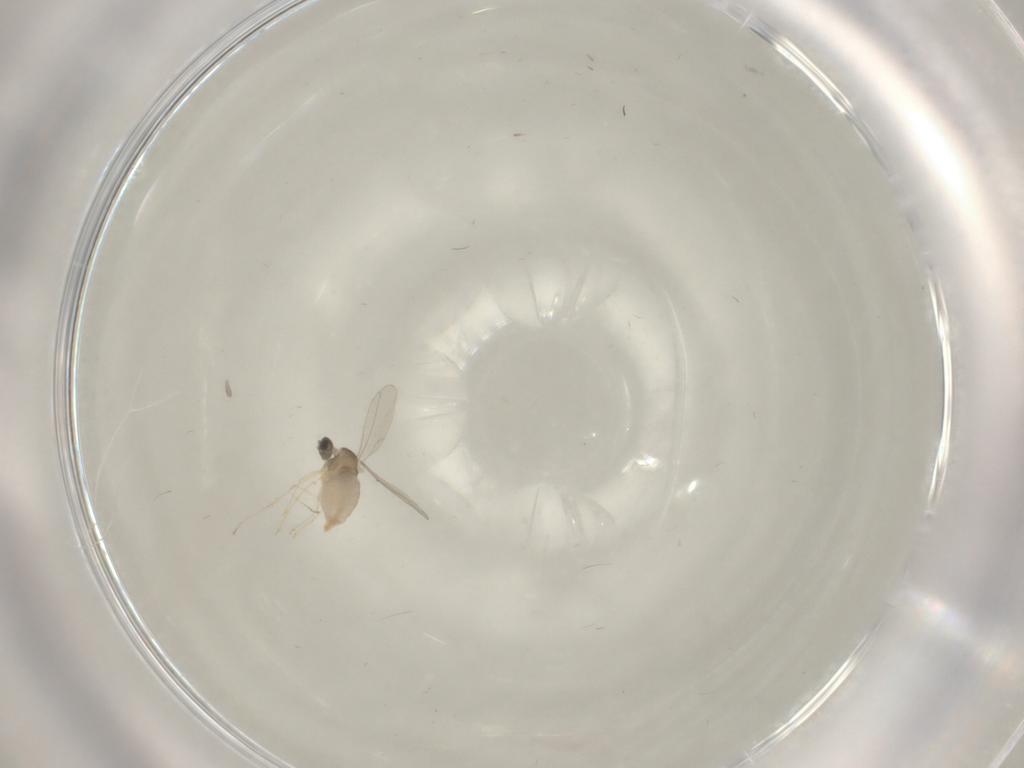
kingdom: Animalia
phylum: Arthropoda
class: Insecta
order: Diptera
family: Cecidomyiidae
